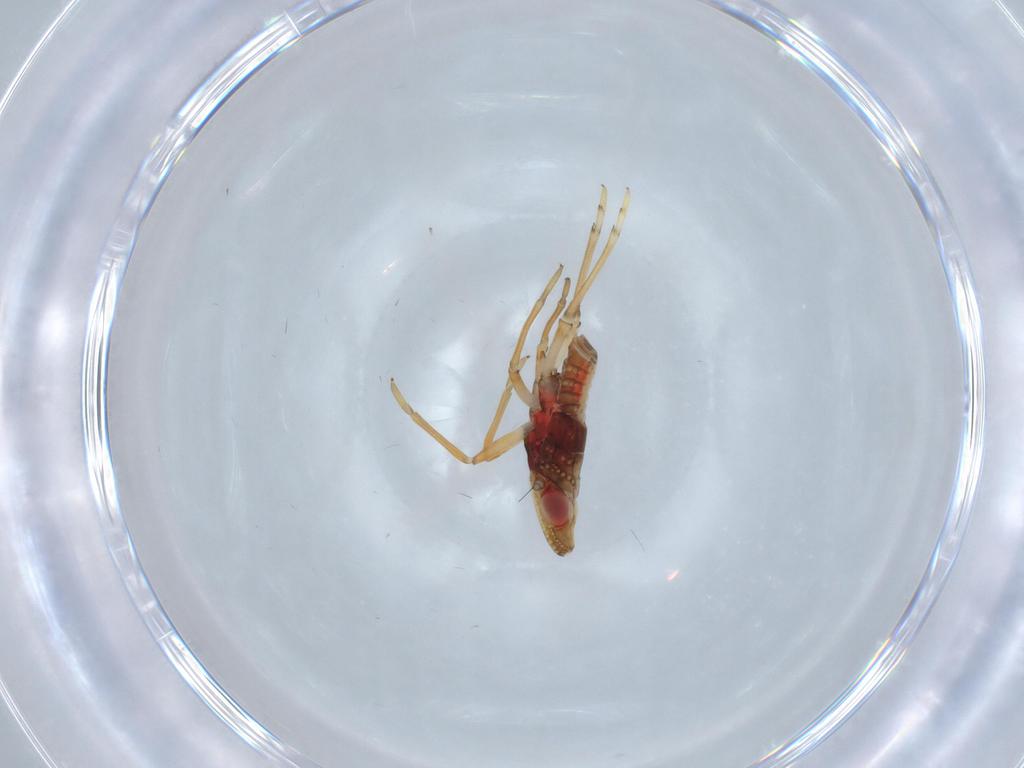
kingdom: Animalia
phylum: Arthropoda
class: Insecta
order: Hemiptera
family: Fulgoroidea_incertae_sedis
